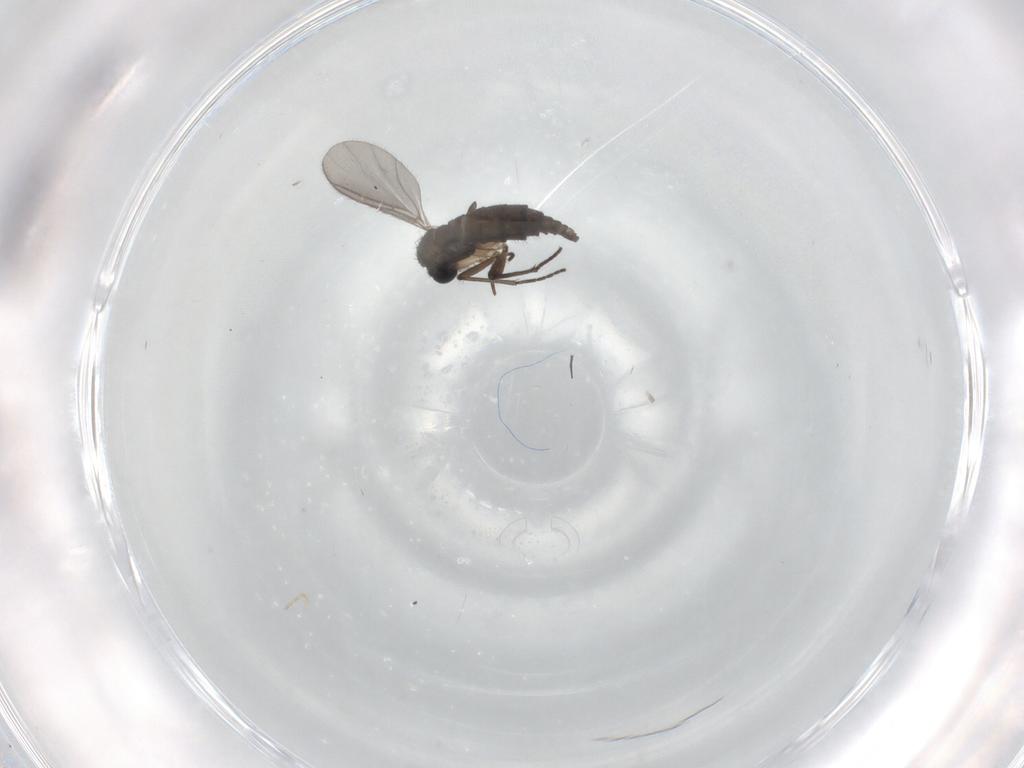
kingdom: Animalia
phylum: Arthropoda
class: Insecta
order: Diptera
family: Sciaridae
